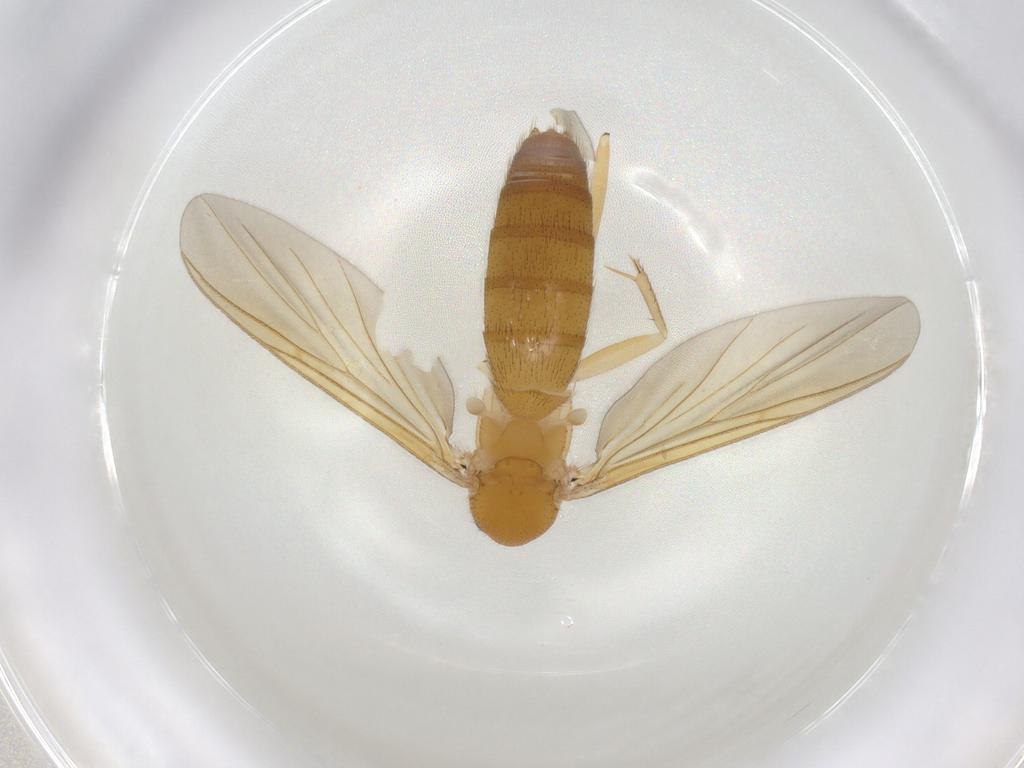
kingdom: Animalia
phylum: Arthropoda
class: Insecta
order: Diptera
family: Mycetophilidae
